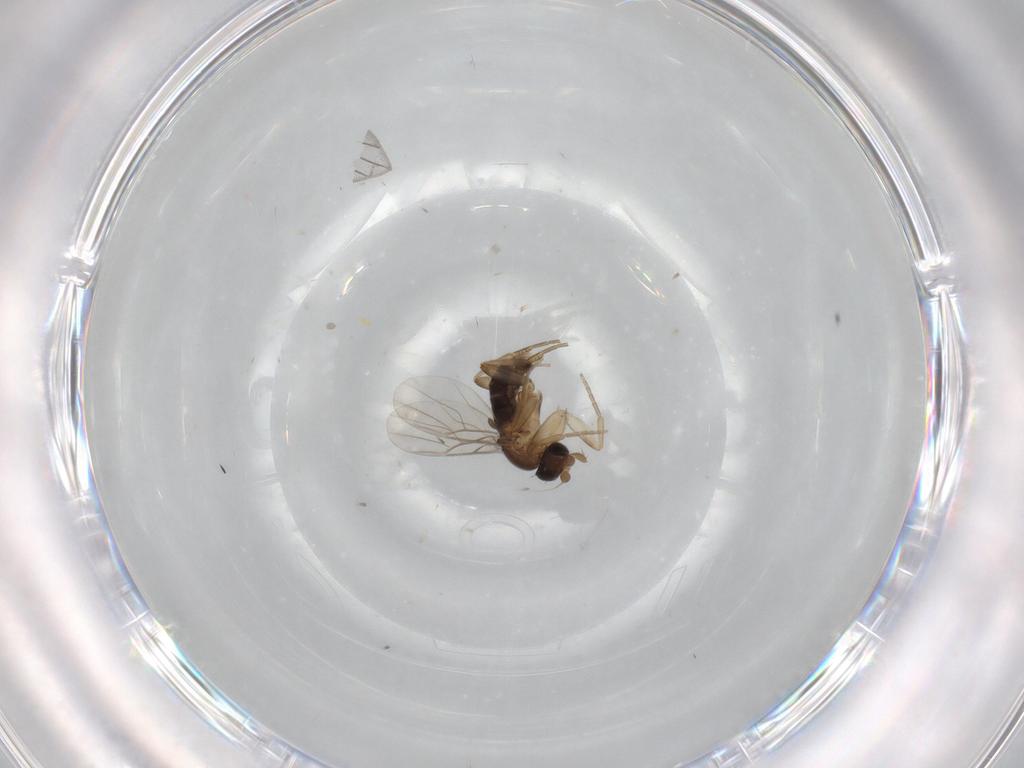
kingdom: Animalia
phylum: Arthropoda
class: Insecta
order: Diptera
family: Phoridae
